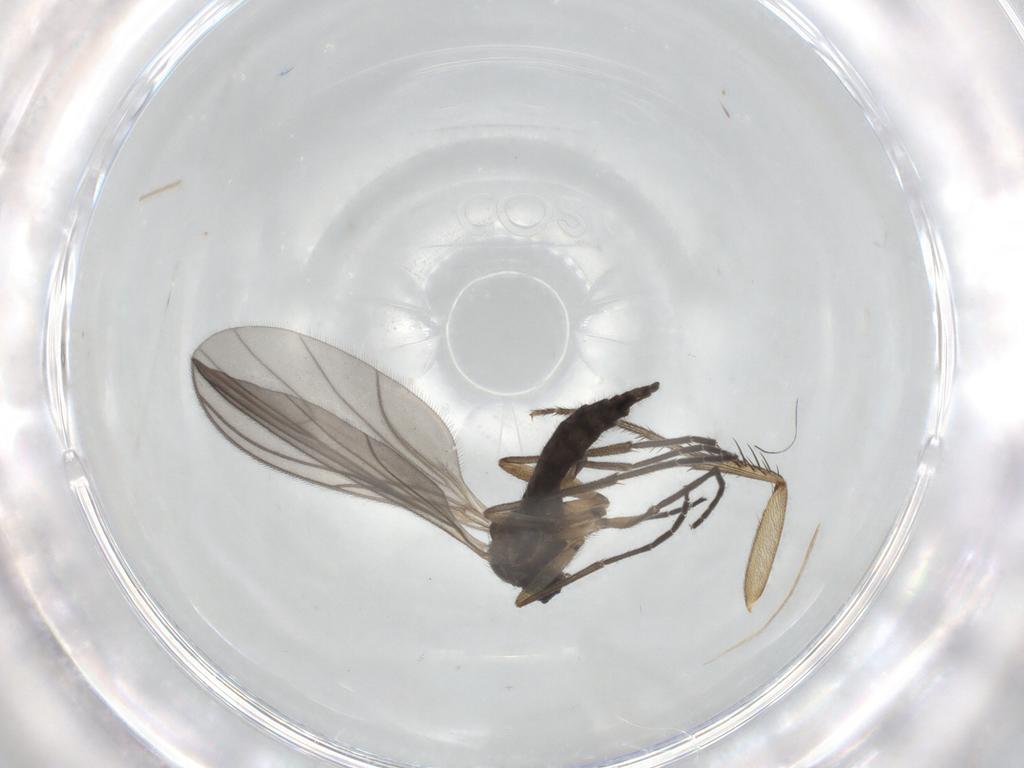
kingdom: Animalia
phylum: Arthropoda
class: Insecta
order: Diptera
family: Sciaridae
